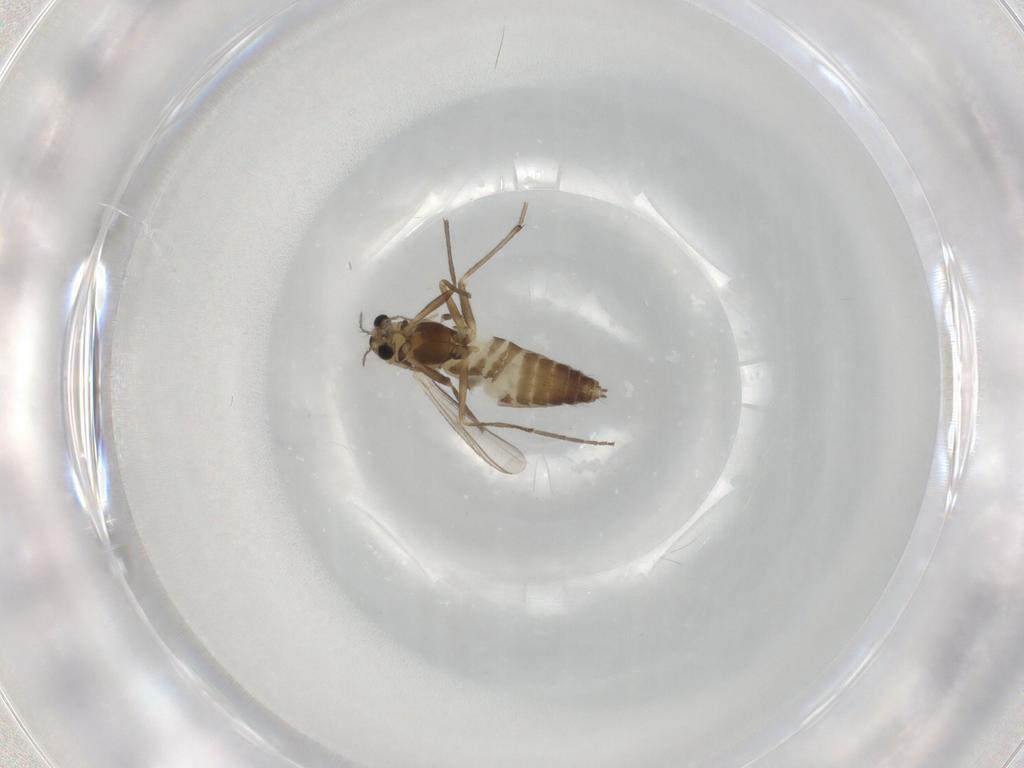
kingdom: Animalia
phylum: Arthropoda
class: Insecta
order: Diptera
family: Chironomidae
